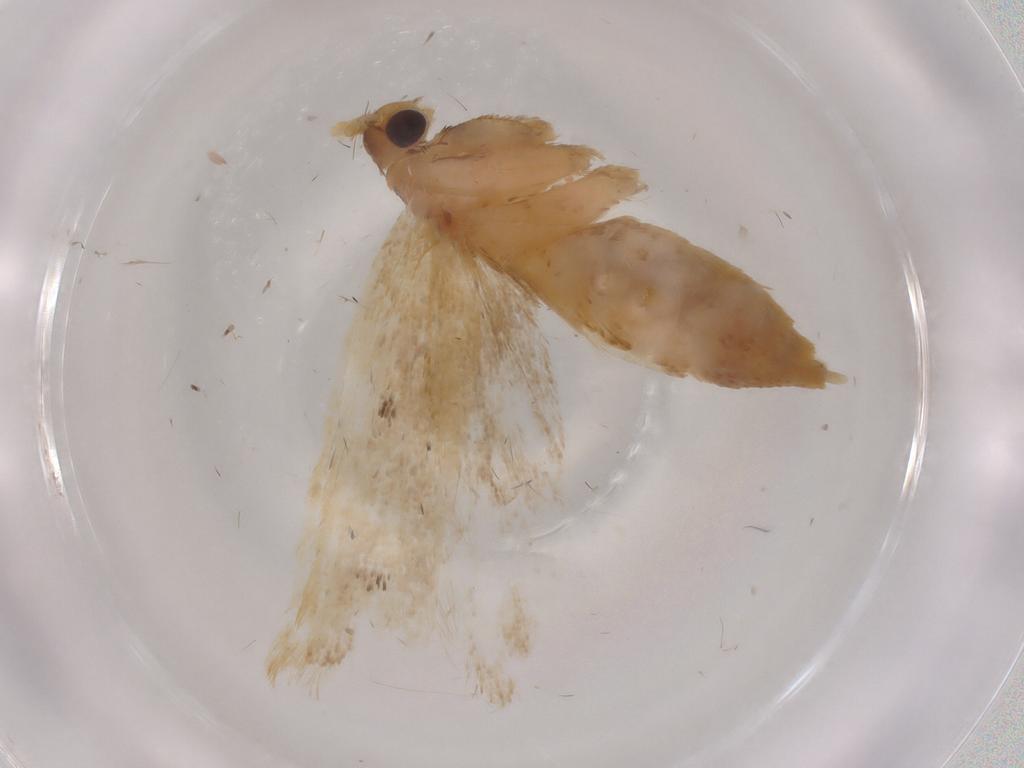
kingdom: Animalia
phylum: Arthropoda
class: Insecta
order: Lepidoptera
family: Lecithoceridae
